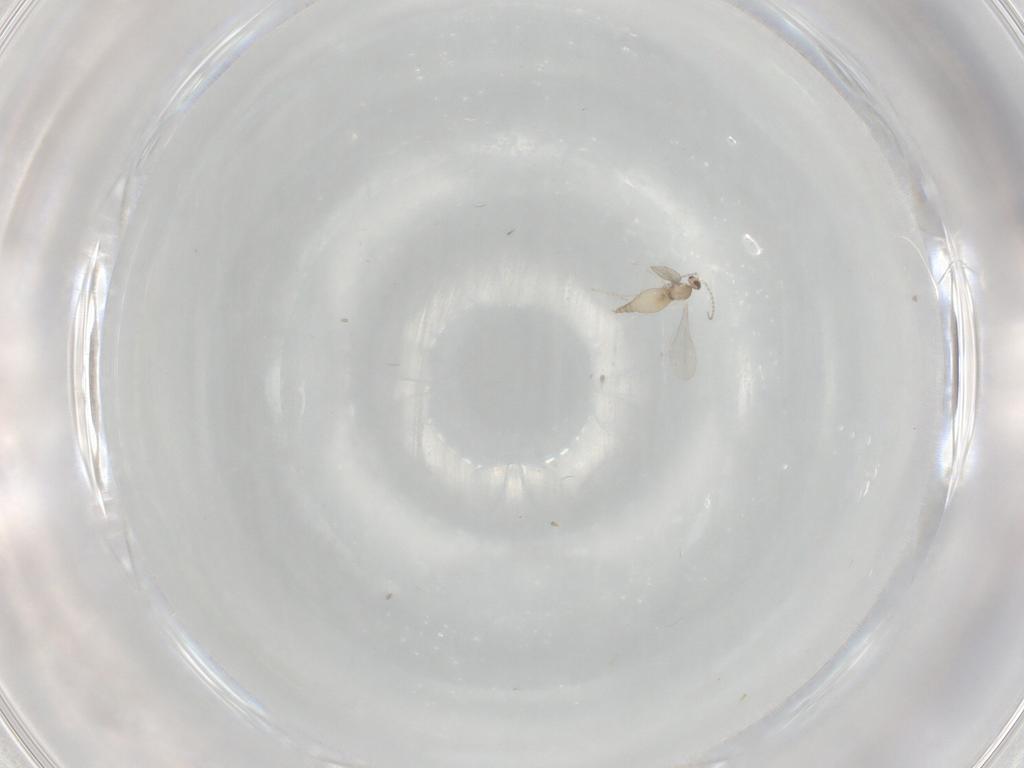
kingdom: Animalia
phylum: Arthropoda
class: Insecta
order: Diptera
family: Cecidomyiidae
